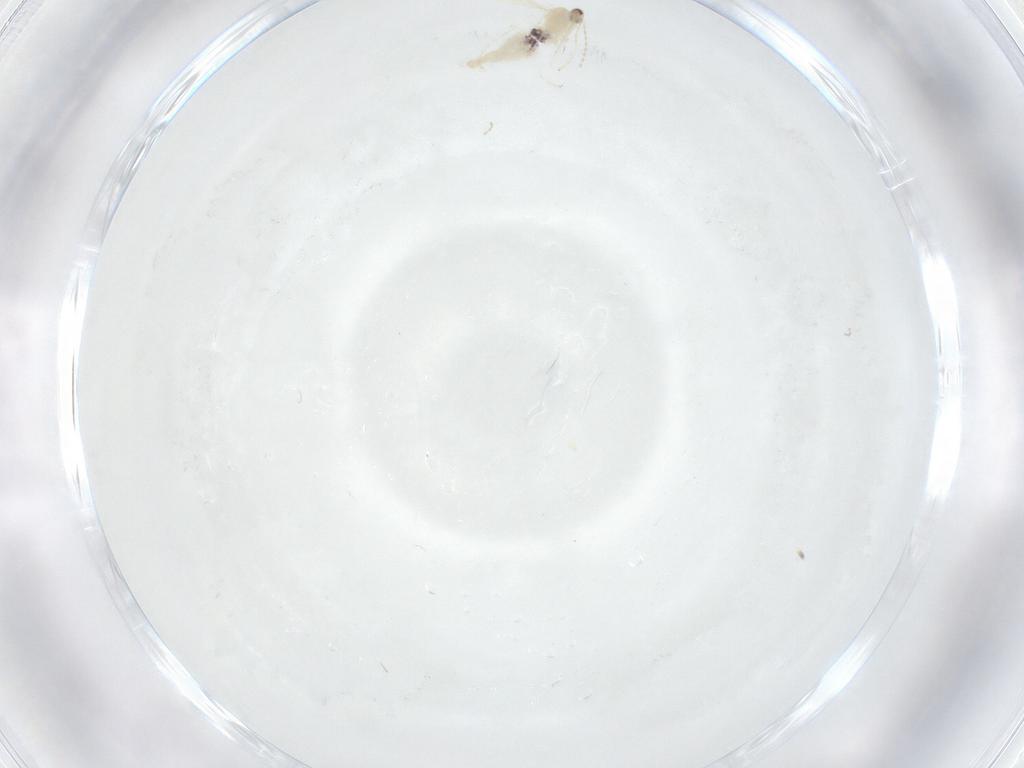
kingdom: Animalia
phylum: Arthropoda
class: Insecta
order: Diptera
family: Cecidomyiidae
